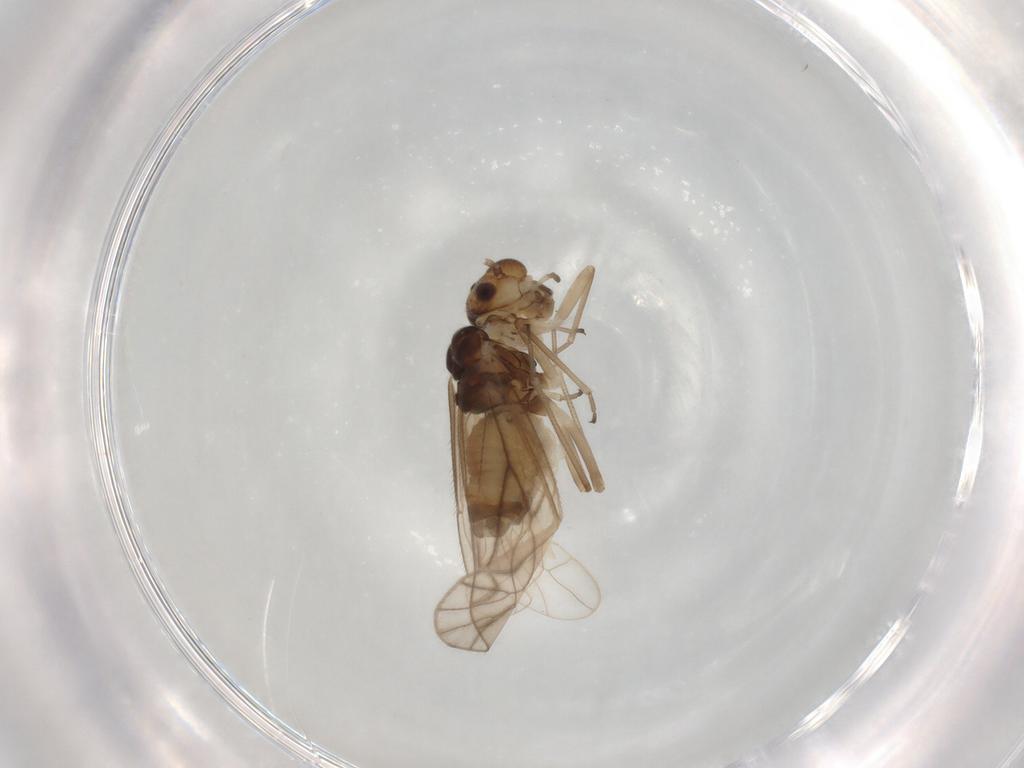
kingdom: Animalia
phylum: Arthropoda
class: Insecta
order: Psocodea
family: Philotarsidae
